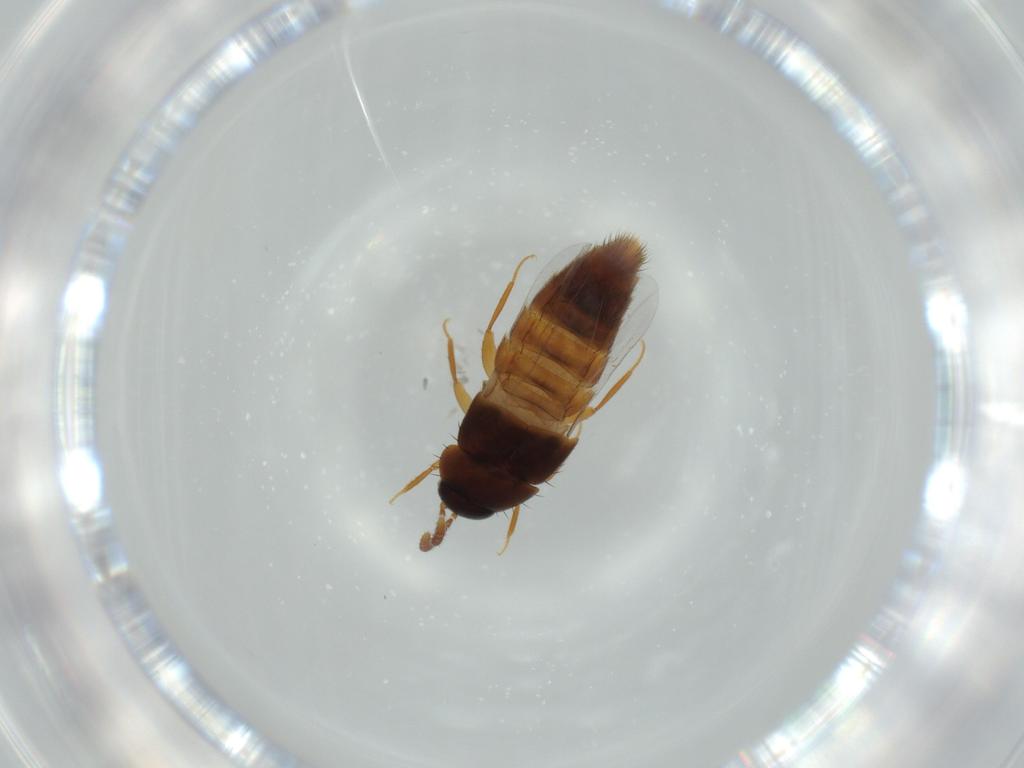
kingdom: Animalia
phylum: Arthropoda
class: Insecta
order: Coleoptera
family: Staphylinidae
